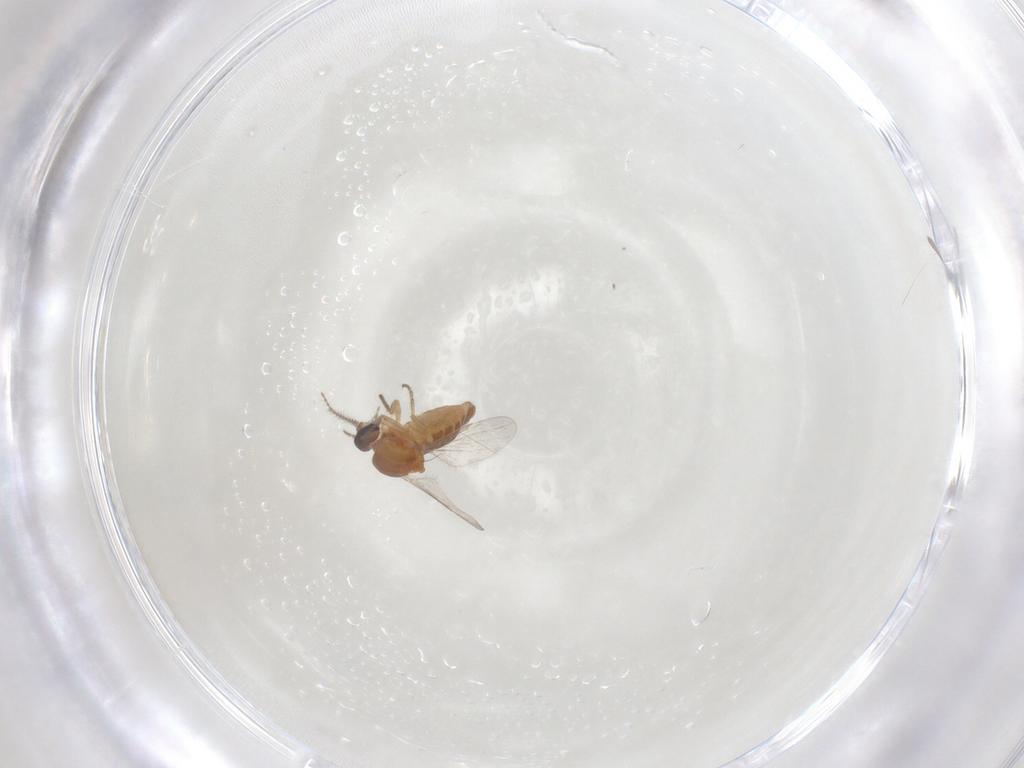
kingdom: Animalia
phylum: Arthropoda
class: Insecta
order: Diptera
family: Ceratopogonidae
